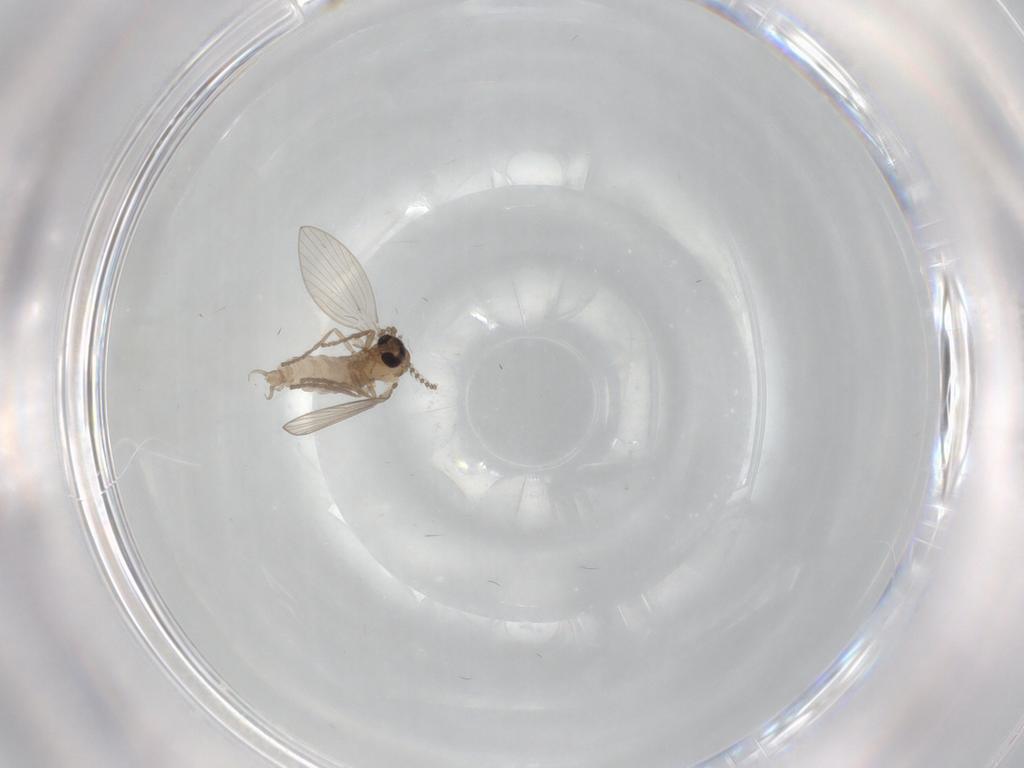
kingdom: Animalia
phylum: Arthropoda
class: Insecta
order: Diptera
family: Psychodidae
